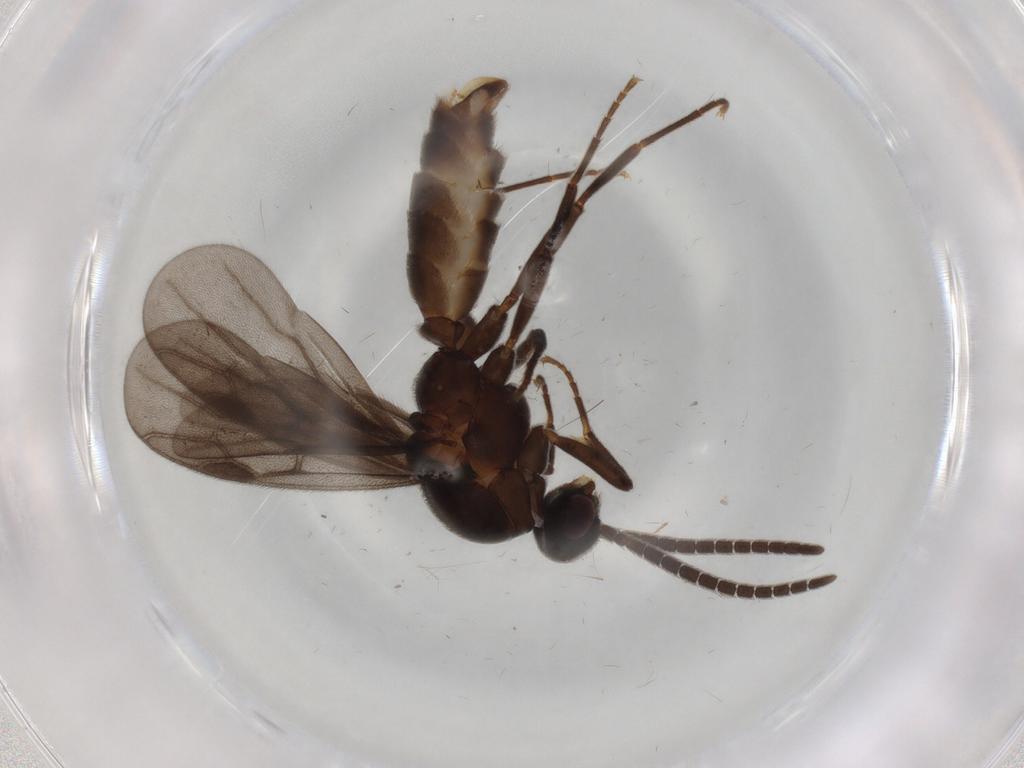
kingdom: Animalia
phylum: Arthropoda
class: Insecta
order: Hymenoptera
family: Formicidae
